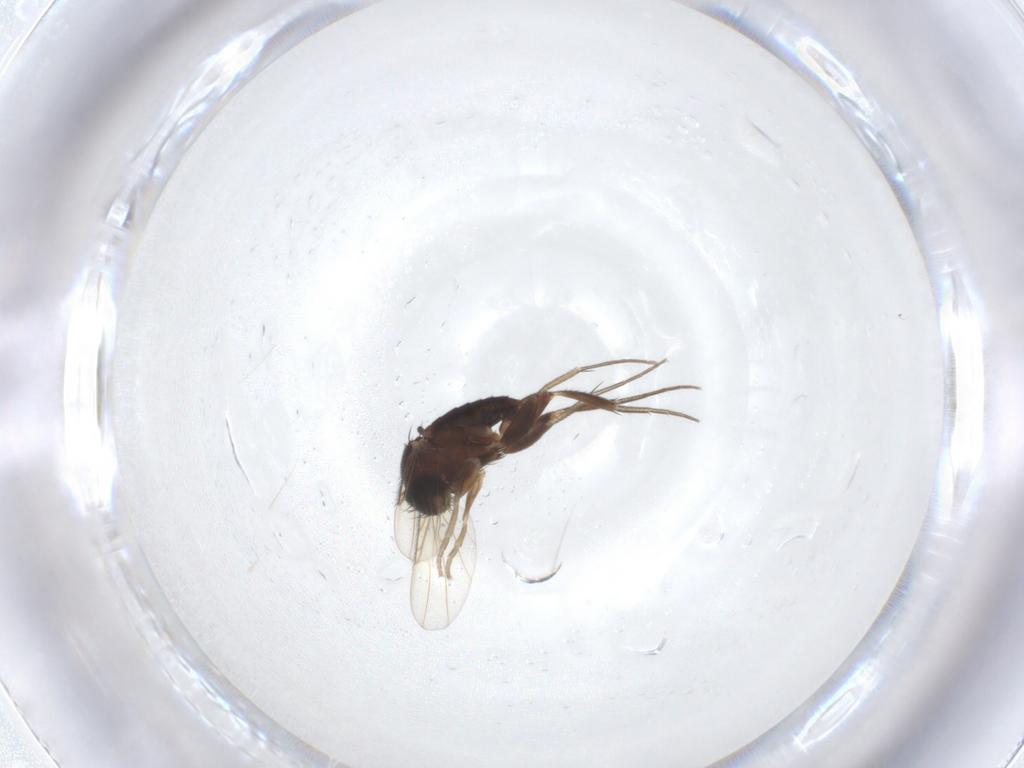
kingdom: Animalia
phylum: Arthropoda
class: Insecta
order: Diptera
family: Phoridae
